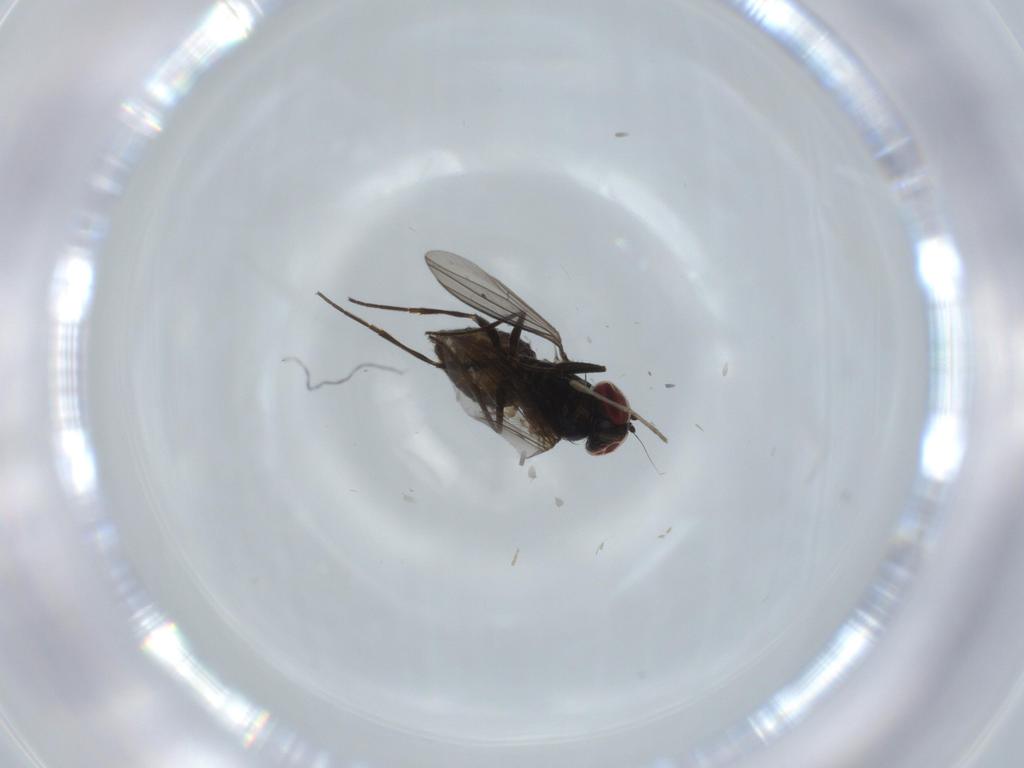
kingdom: Animalia
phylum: Arthropoda
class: Insecta
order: Diptera
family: Dolichopodidae
